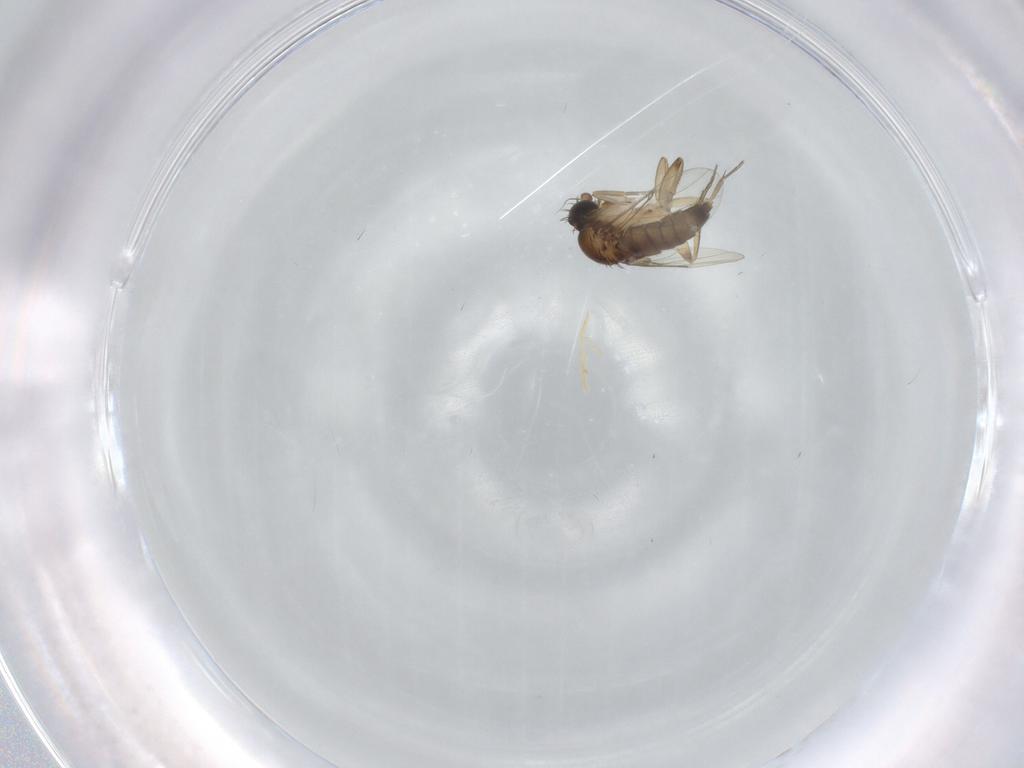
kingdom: Animalia
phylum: Arthropoda
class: Insecta
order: Diptera
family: Phoridae
